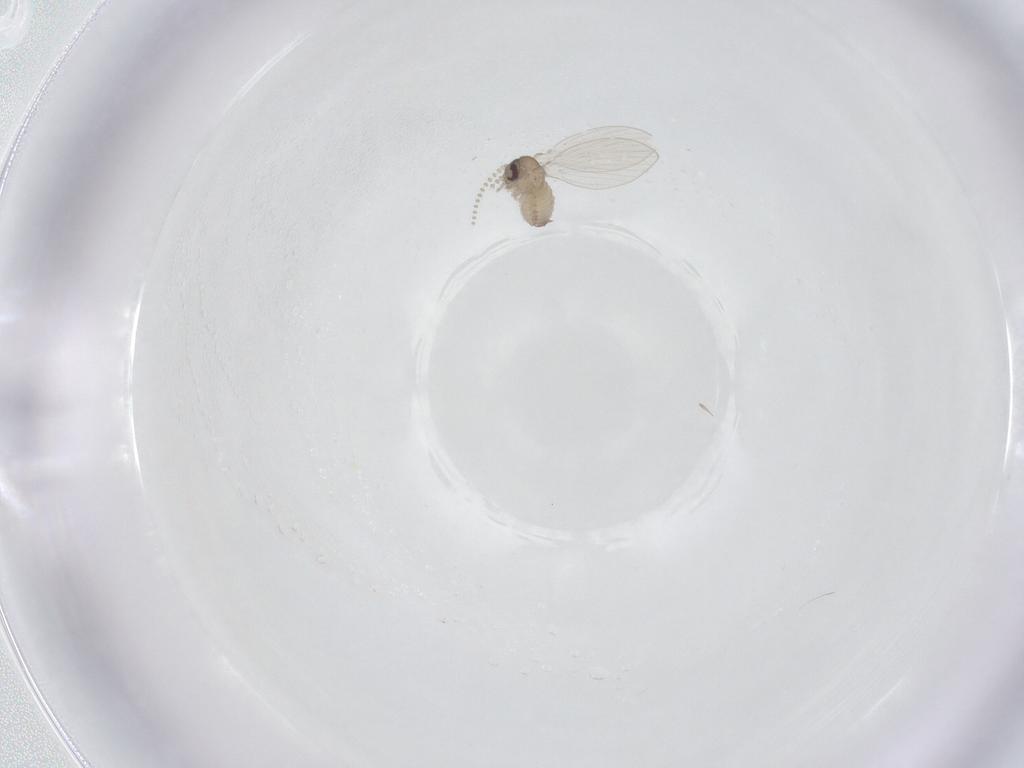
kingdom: Animalia
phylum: Arthropoda
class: Insecta
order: Diptera
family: Psychodidae
